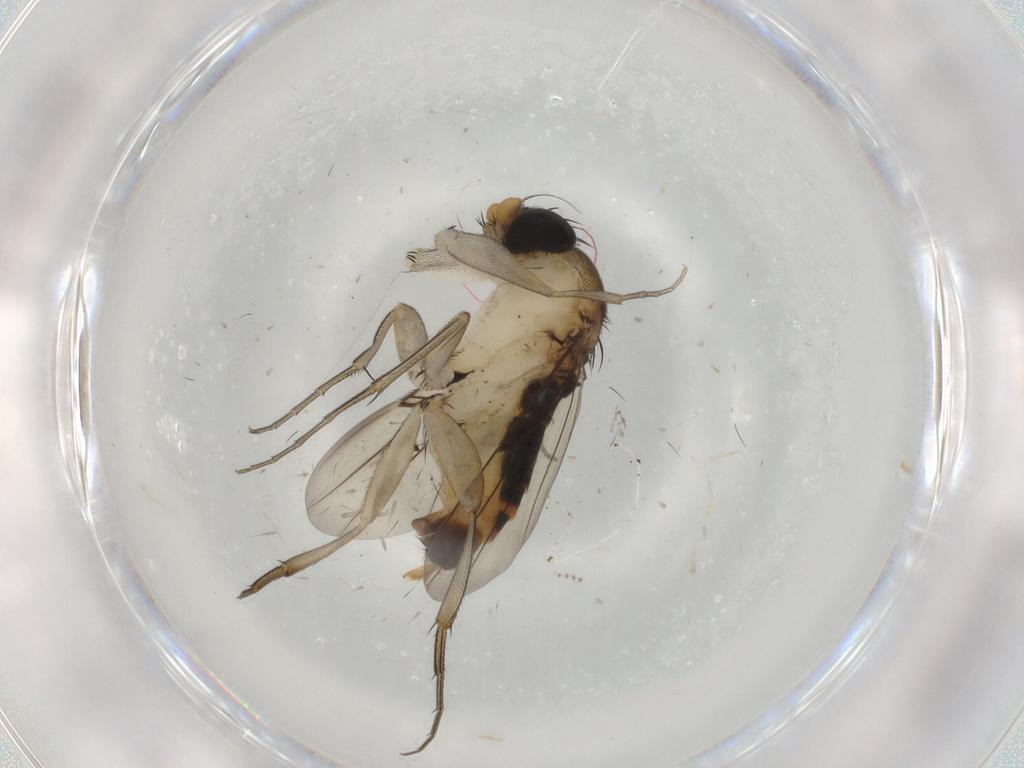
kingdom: Animalia
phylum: Arthropoda
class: Insecta
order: Diptera
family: Phoridae
